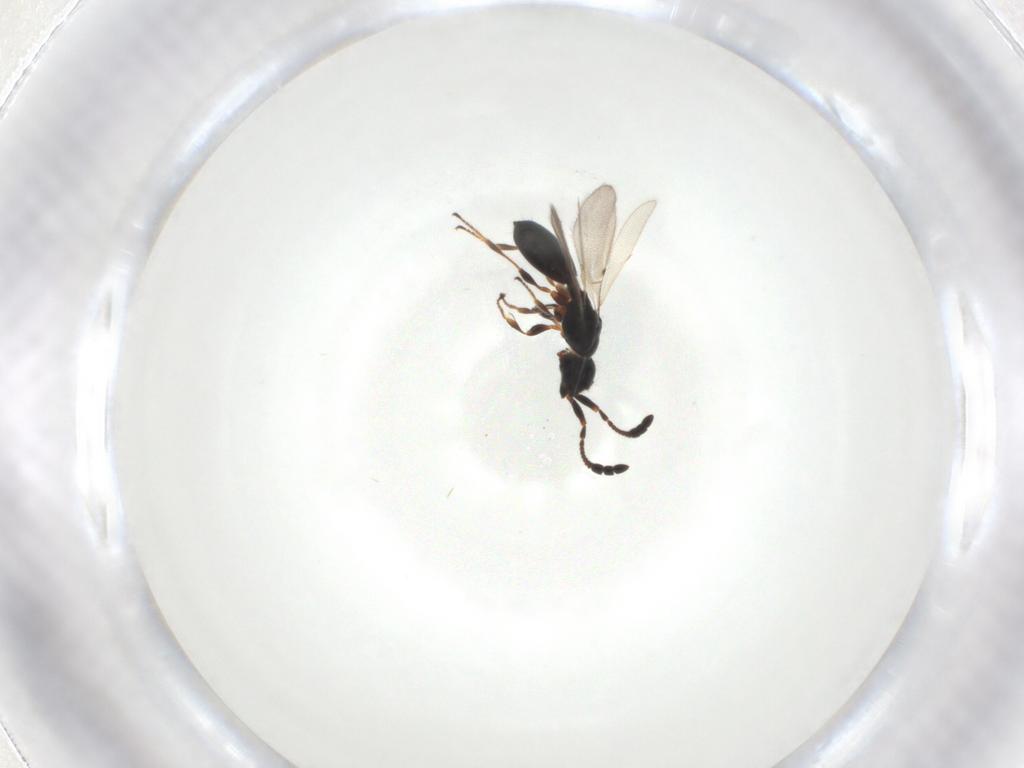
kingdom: Animalia
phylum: Arthropoda
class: Insecta
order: Hymenoptera
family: Diapriidae
